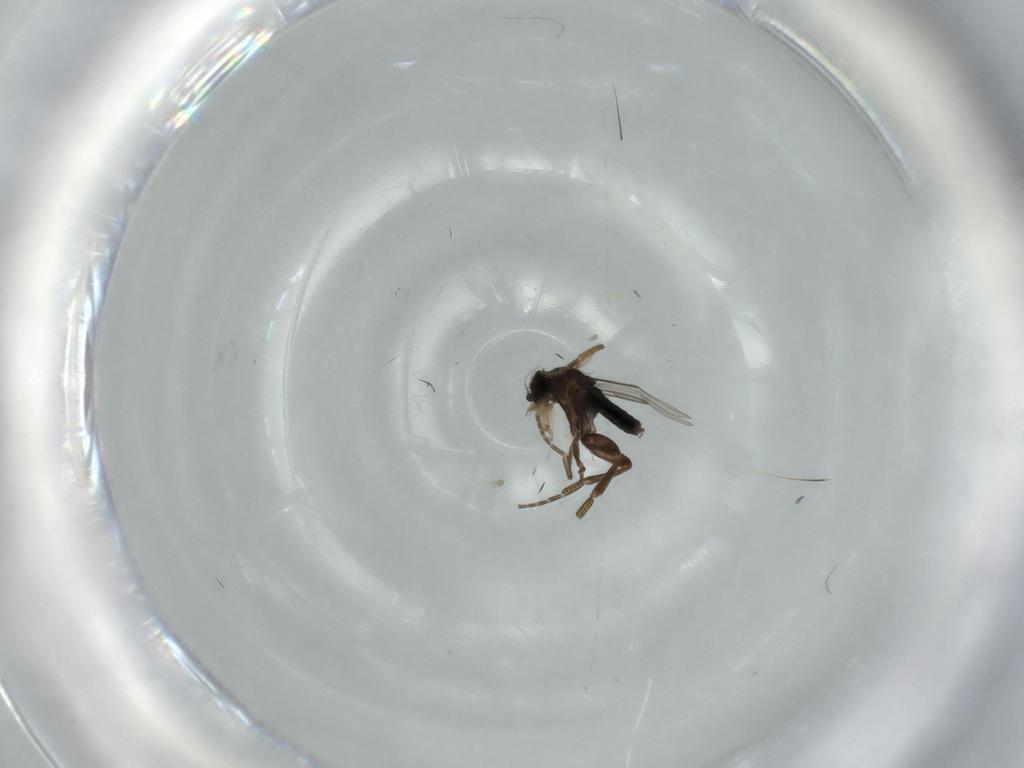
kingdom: Animalia
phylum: Arthropoda
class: Insecta
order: Diptera
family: Phoridae
